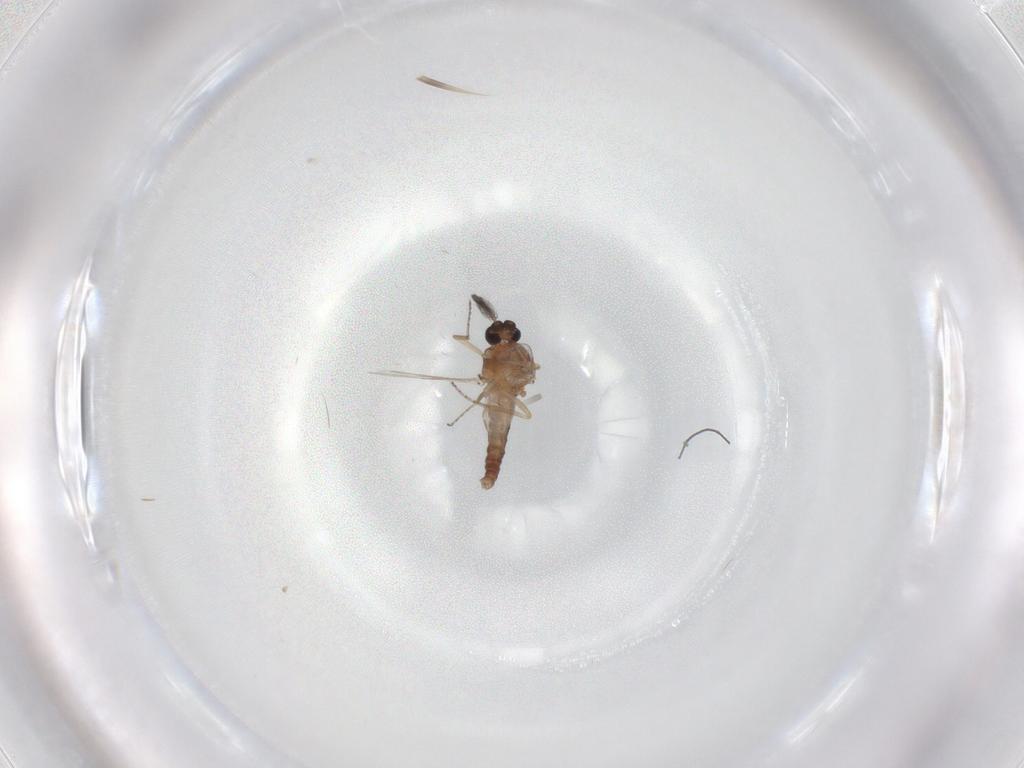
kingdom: Animalia
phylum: Arthropoda
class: Insecta
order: Diptera
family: Ceratopogonidae
